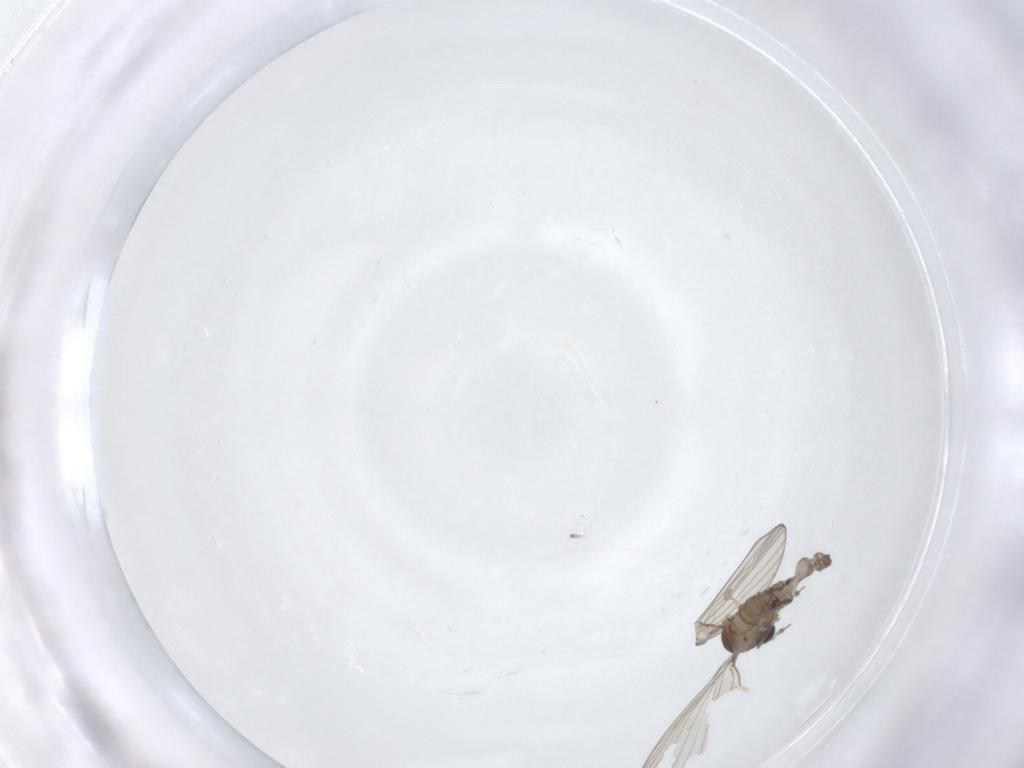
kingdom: Animalia
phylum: Arthropoda
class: Insecta
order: Diptera
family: Psychodidae
